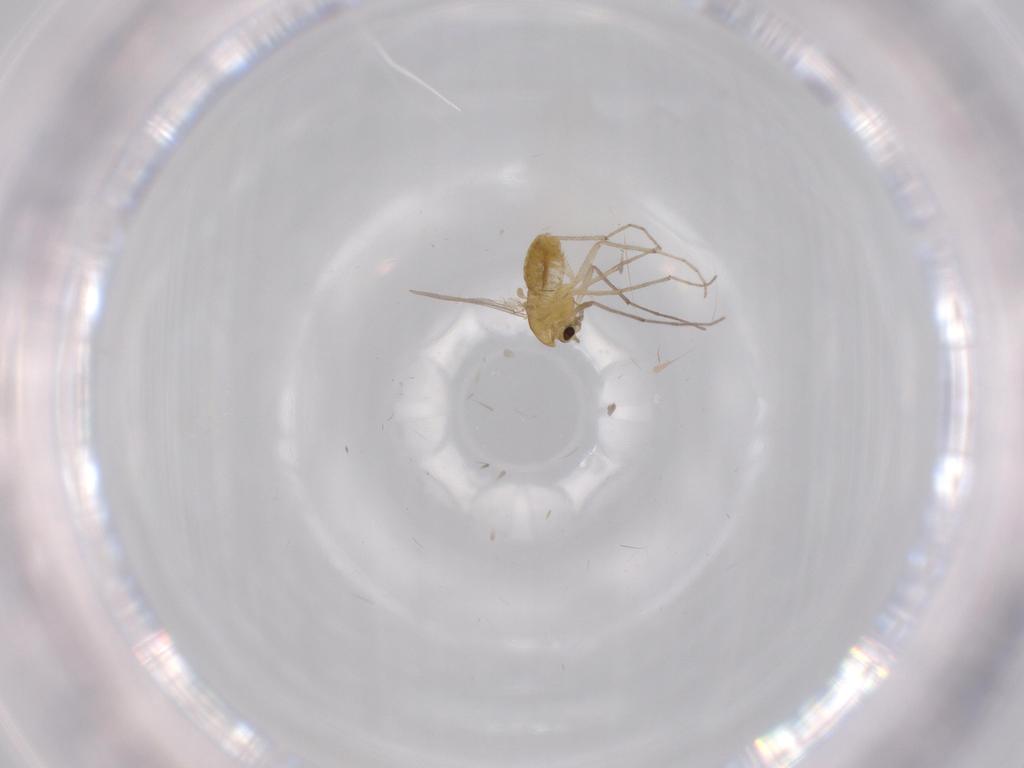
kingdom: Animalia
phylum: Arthropoda
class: Insecta
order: Diptera
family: Chironomidae
